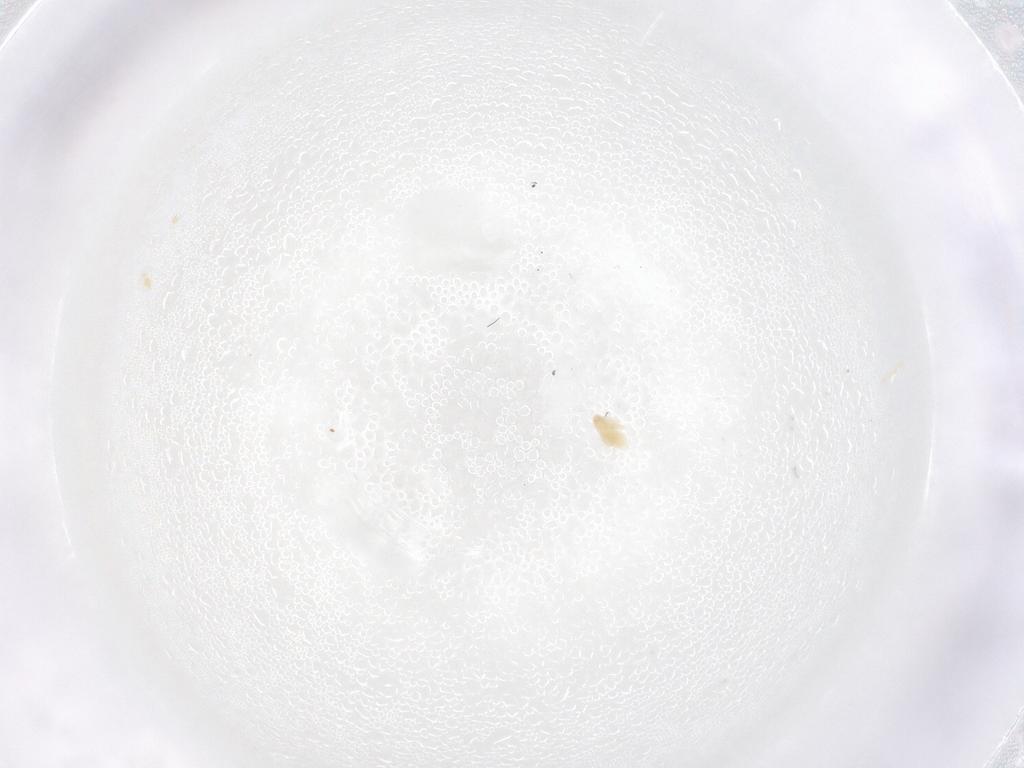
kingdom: Animalia
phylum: Arthropoda
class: Arachnida
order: Trombidiformes
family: Eupodidae
